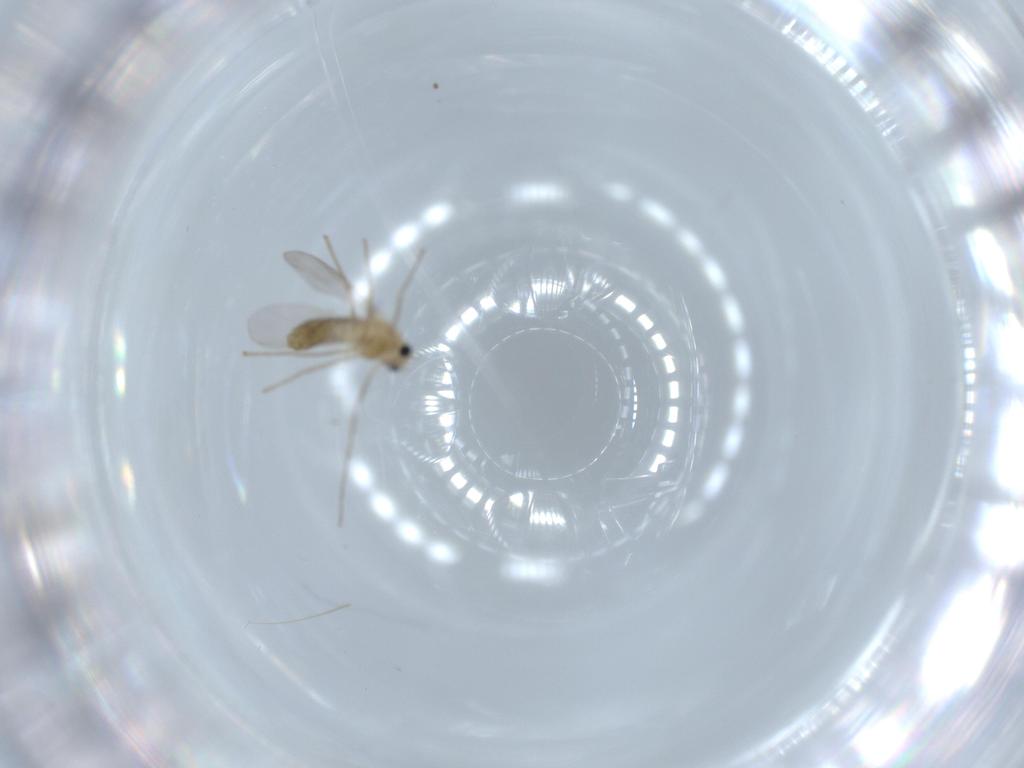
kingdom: Animalia
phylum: Arthropoda
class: Insecta
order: Diptera
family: Chironomidae
